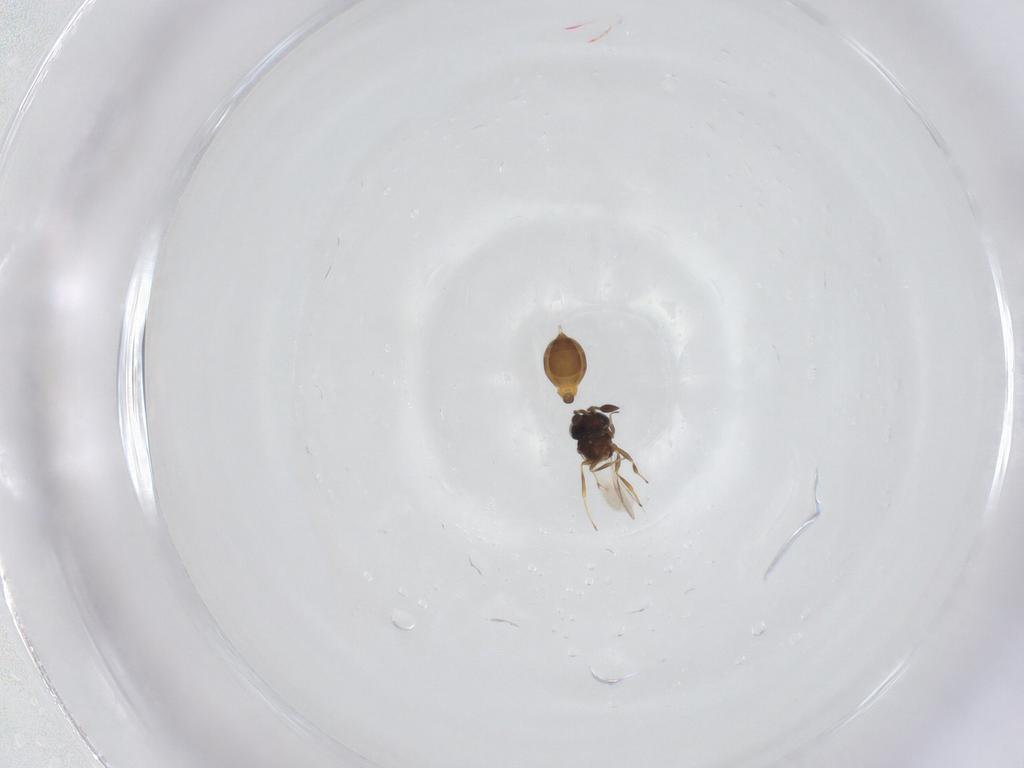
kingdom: Animalia
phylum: Arthropoda
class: Insecta
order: Hymenoptera
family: Scelionidae
